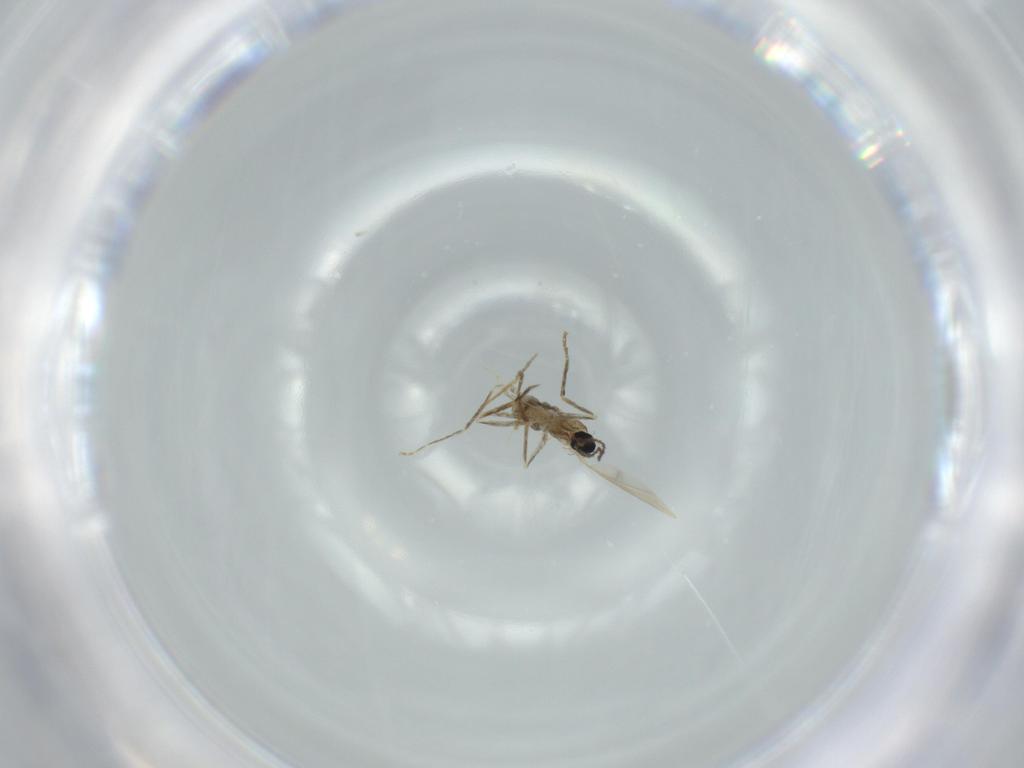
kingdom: Animalia
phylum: Arthropoda
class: Insecta
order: Diptera
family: Cecidomyiidae
